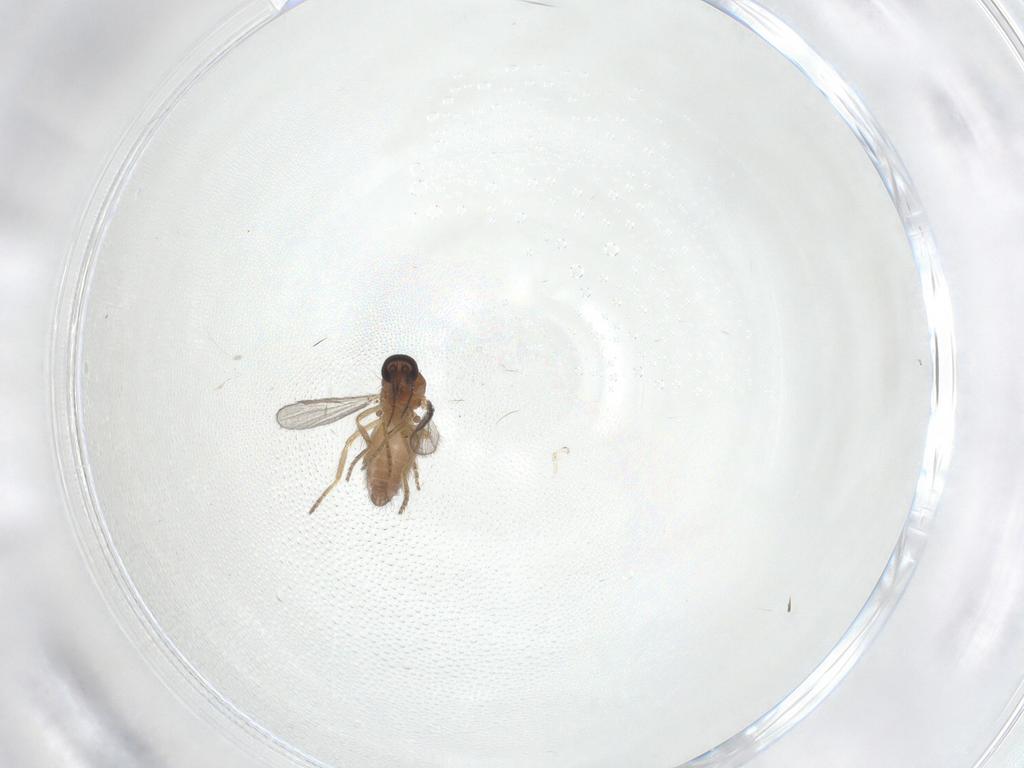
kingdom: Animalia
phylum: Arthropoda
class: Insecta
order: Diptera
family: Ceratopogonidae
